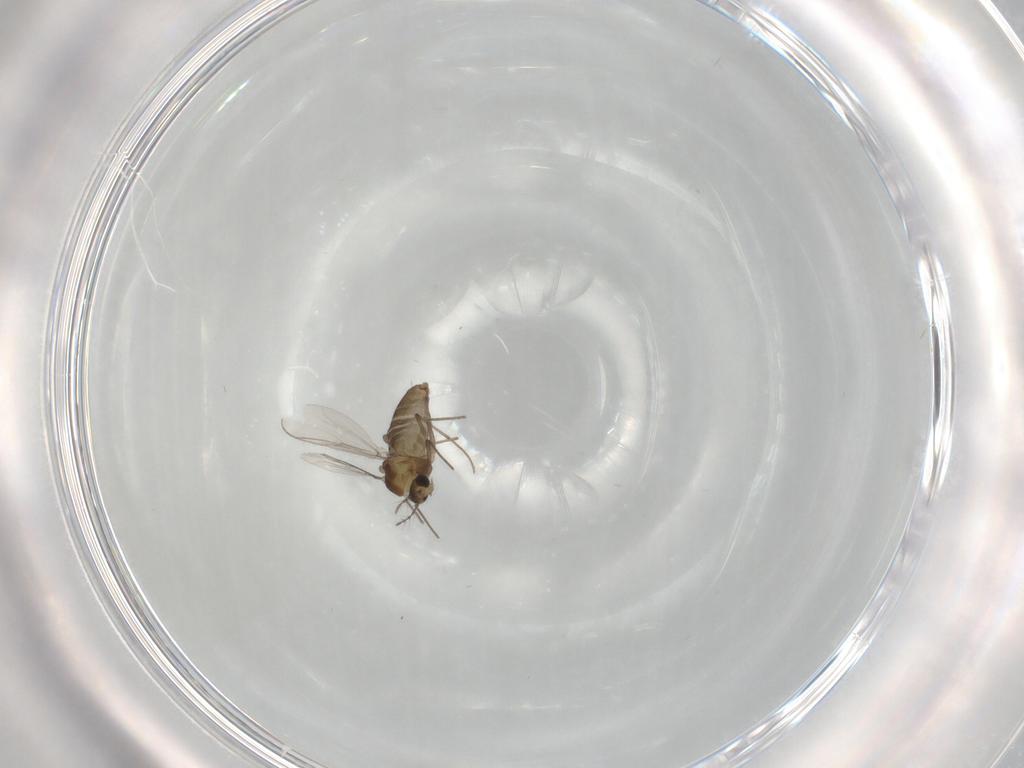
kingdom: Animalia
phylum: Arthropoda
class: Insecta
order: Diptera
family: Chironomidae
